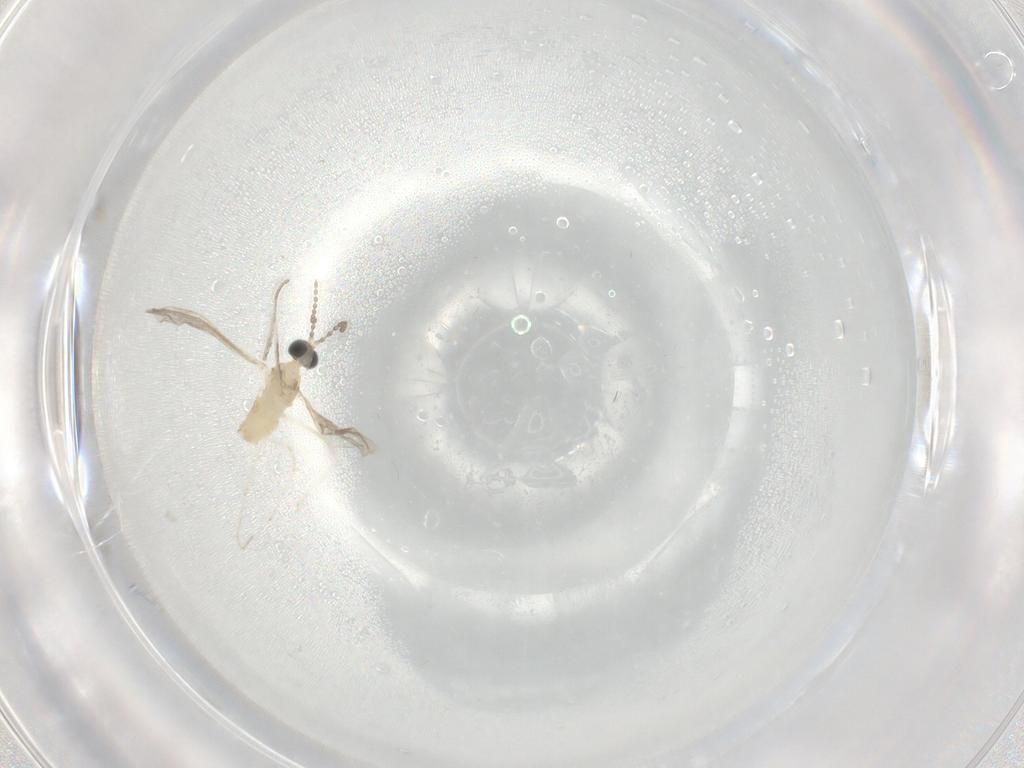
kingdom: Animalia
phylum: Arthropoda
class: Insecta
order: Diptera
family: Cecidomyiidae
